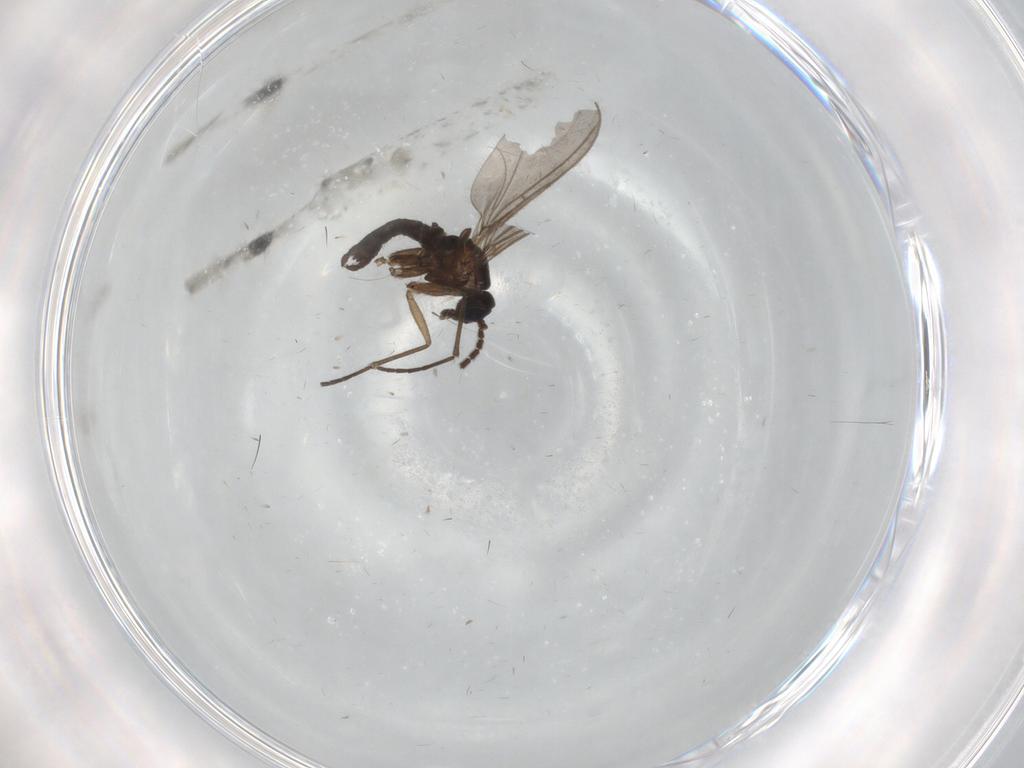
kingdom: Animalia
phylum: Arthropoda
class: Insecta
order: Diptera
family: Sciaridae
